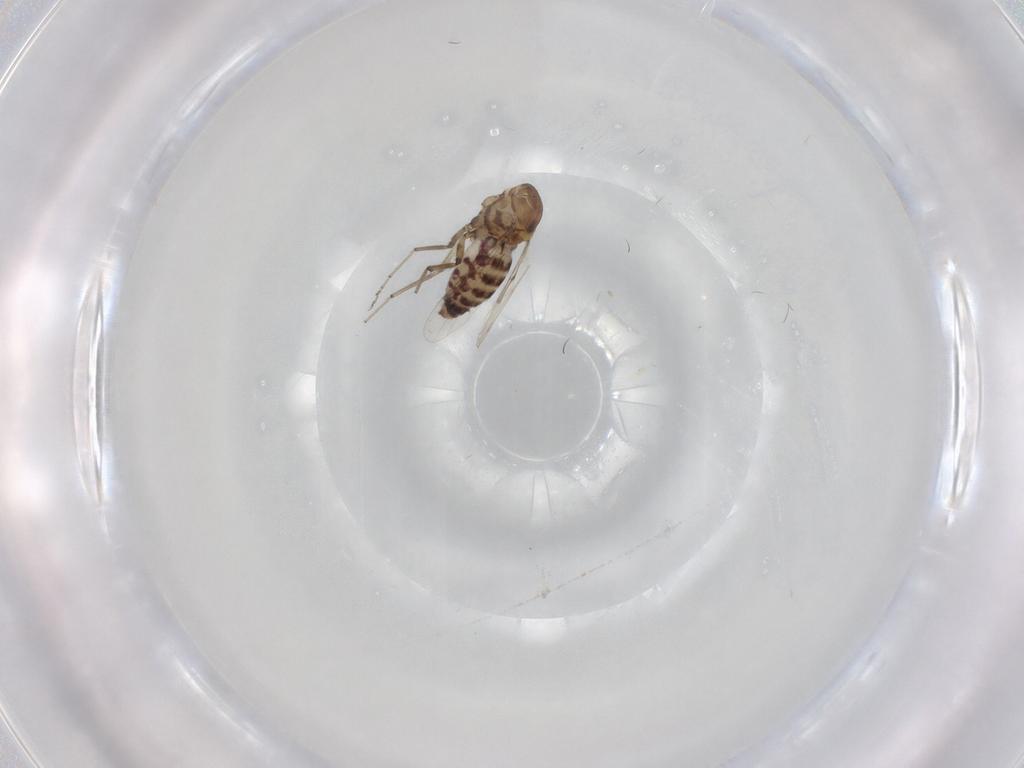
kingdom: Animalia
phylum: Arthropoda
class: Insecta
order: Diptera
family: Ceratopogonidae
